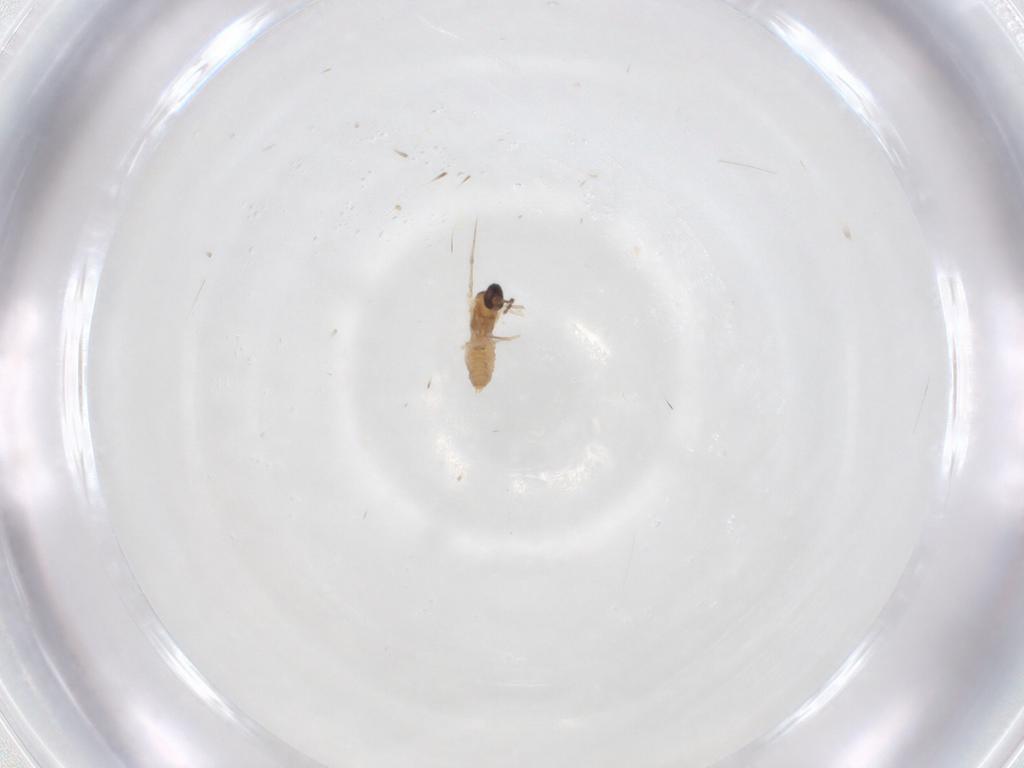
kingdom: Animalia
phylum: Arthropoda
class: Insecta
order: Diptera
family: Cecidomyiidae
